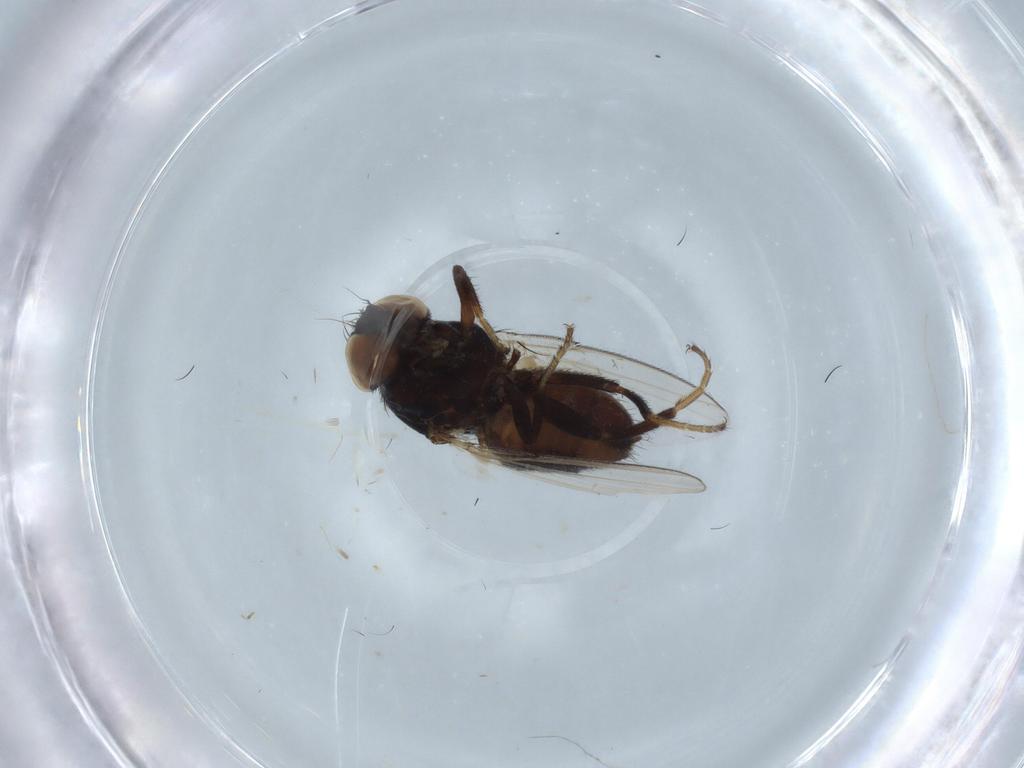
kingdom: Animalia
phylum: Arthropoda
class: Insecta
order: Diptera
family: Chloropidae
